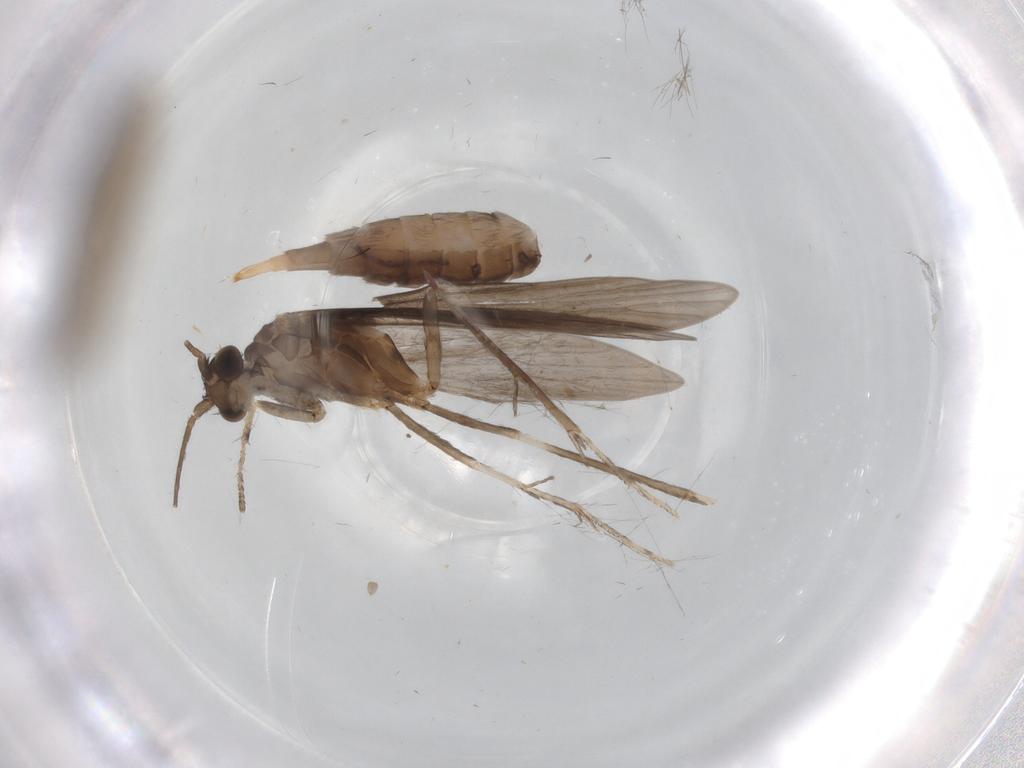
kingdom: Animalia
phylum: Arthropoda
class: Insecta
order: Trichoptera
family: Xiphocentronidae
